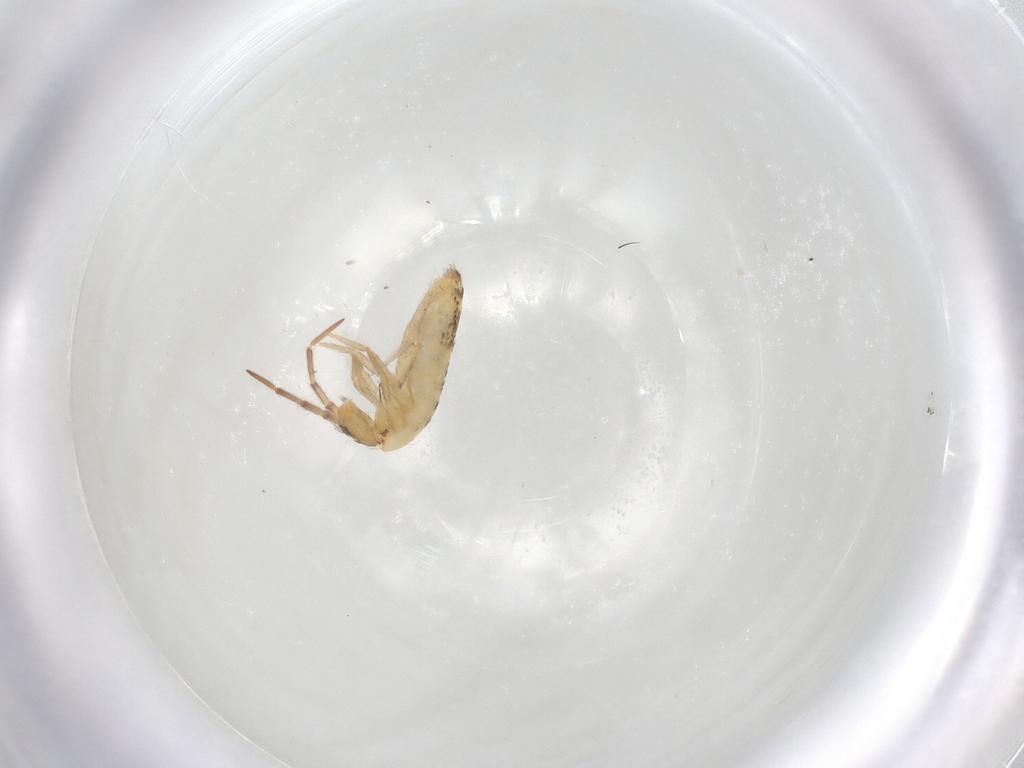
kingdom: Animalia
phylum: Arthropoda
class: Collembola
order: Entomobryomorpha
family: Entomobryidae
